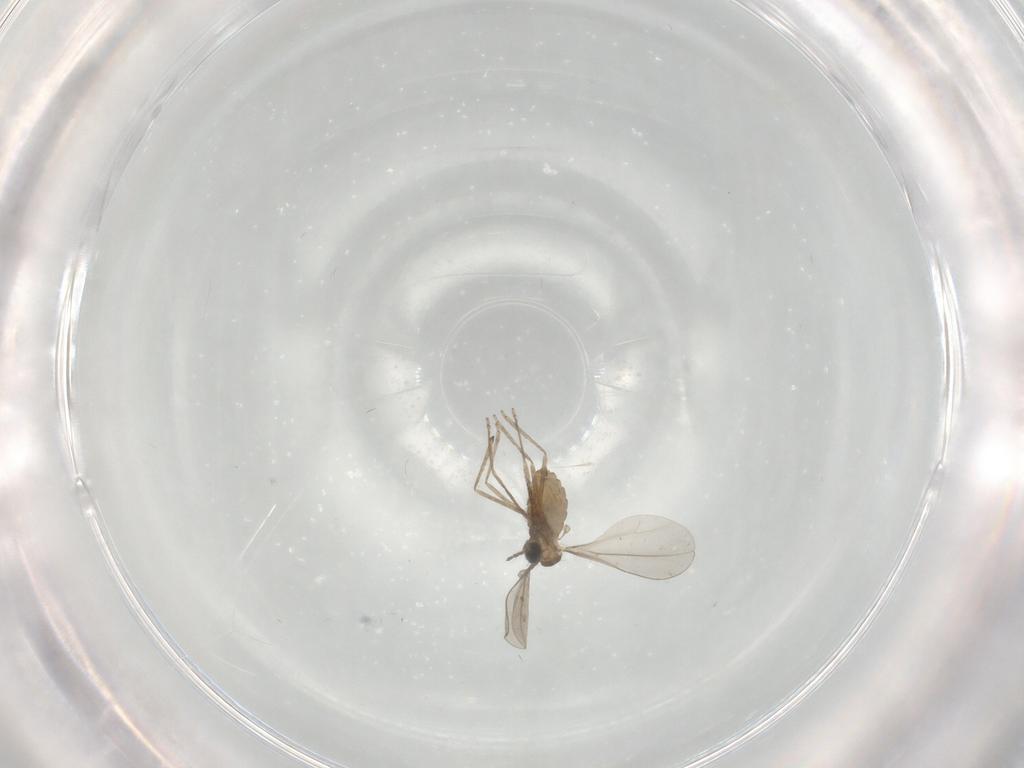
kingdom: Animalia
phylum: Arthropoda
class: Insecta
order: Diptera
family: Cecidomyiidae
